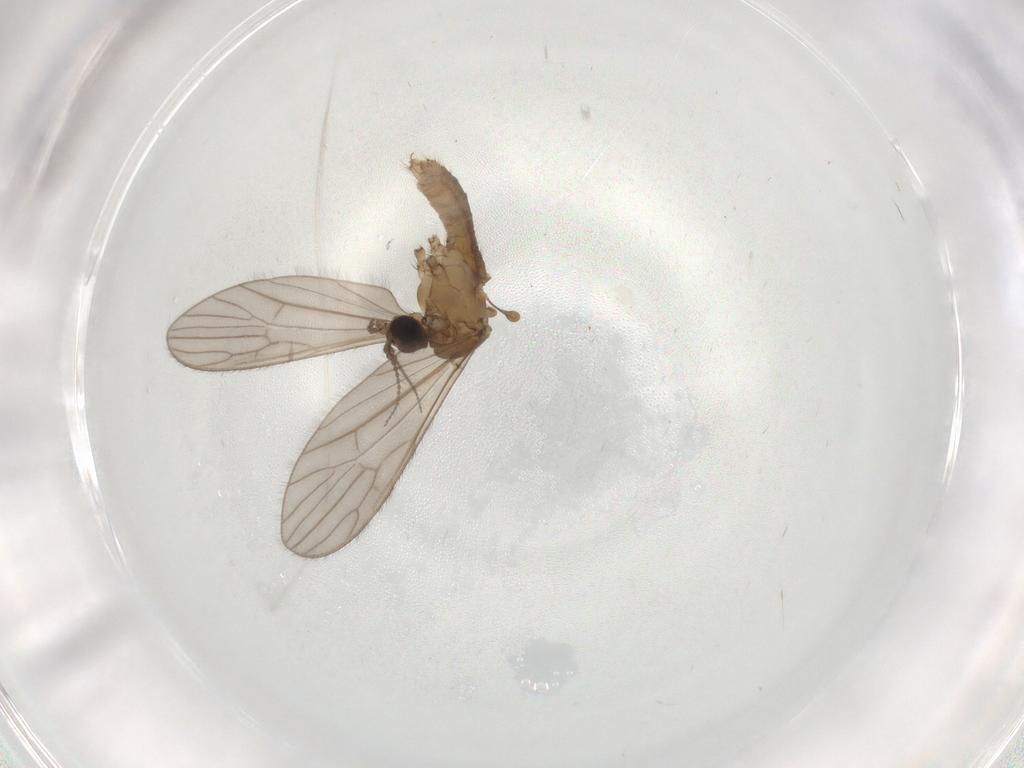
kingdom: Animalia
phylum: Arthropoda
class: Insecta
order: Diptera
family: Limoniidae
